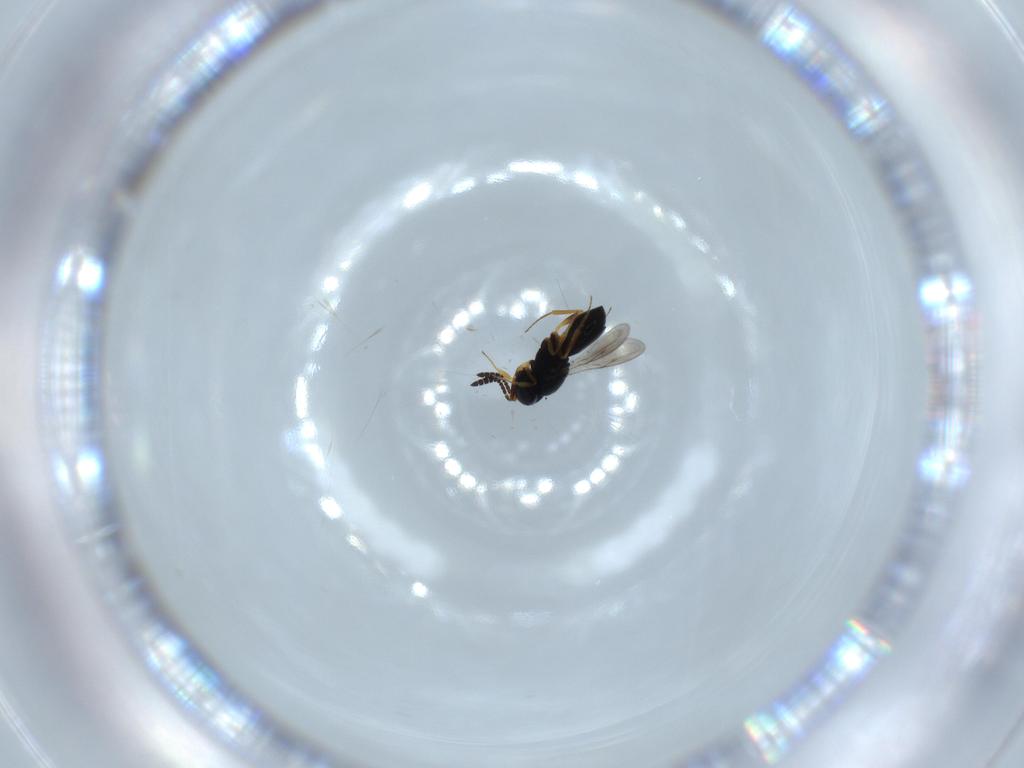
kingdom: Animalia
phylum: Arthropoda
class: Insecta
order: Hymenoptera
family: Scelionidae
